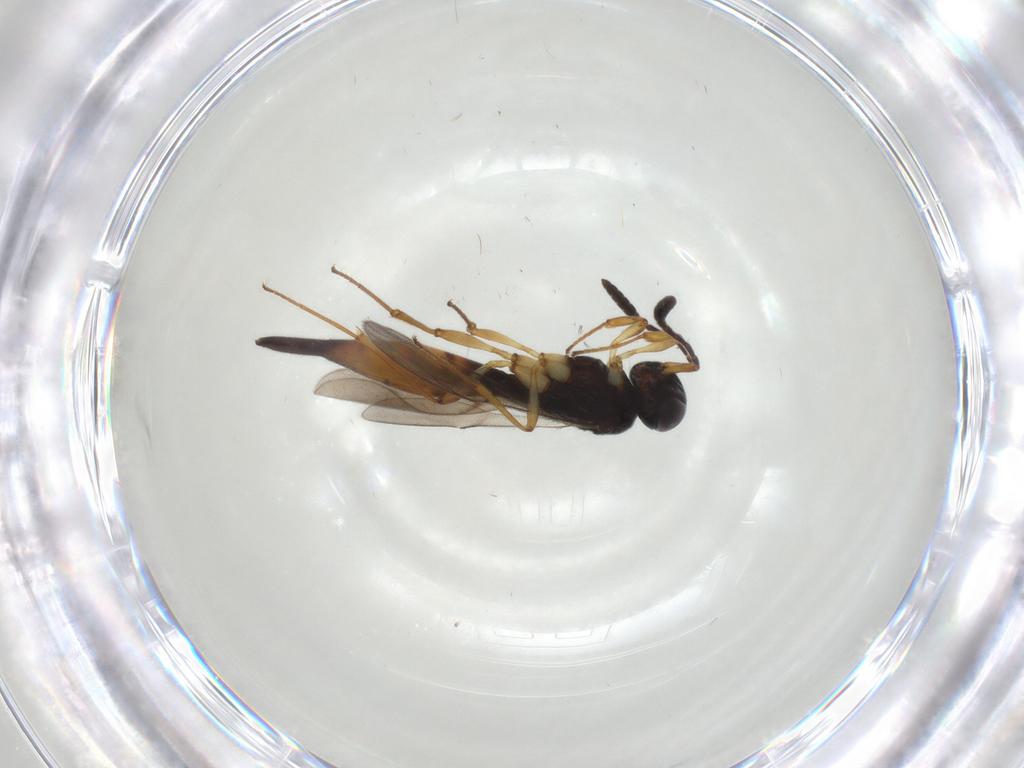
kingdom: Animalia
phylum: Arthropoda
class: Insecta
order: Hymenoptera
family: Scelionidae
